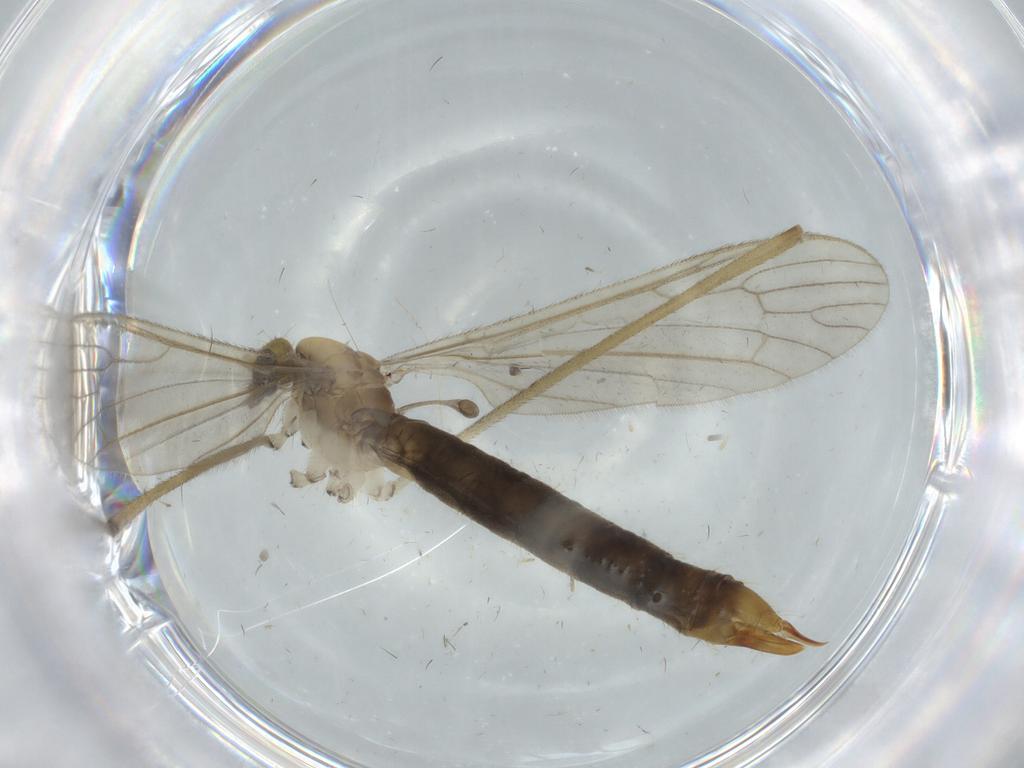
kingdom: Animalia
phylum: Arthropoda
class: Insecta
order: Diptera
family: Limoniidae
